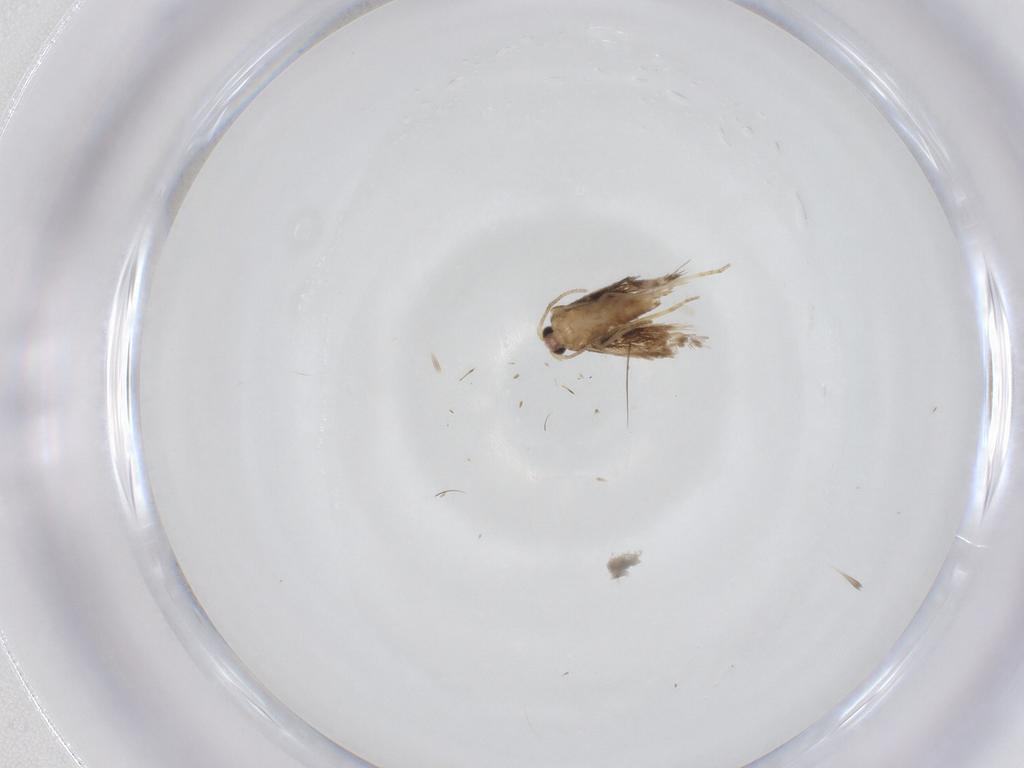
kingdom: Animalia
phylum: Arthropoda
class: Insecta
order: Lepidoptera
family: Nepticulidae
